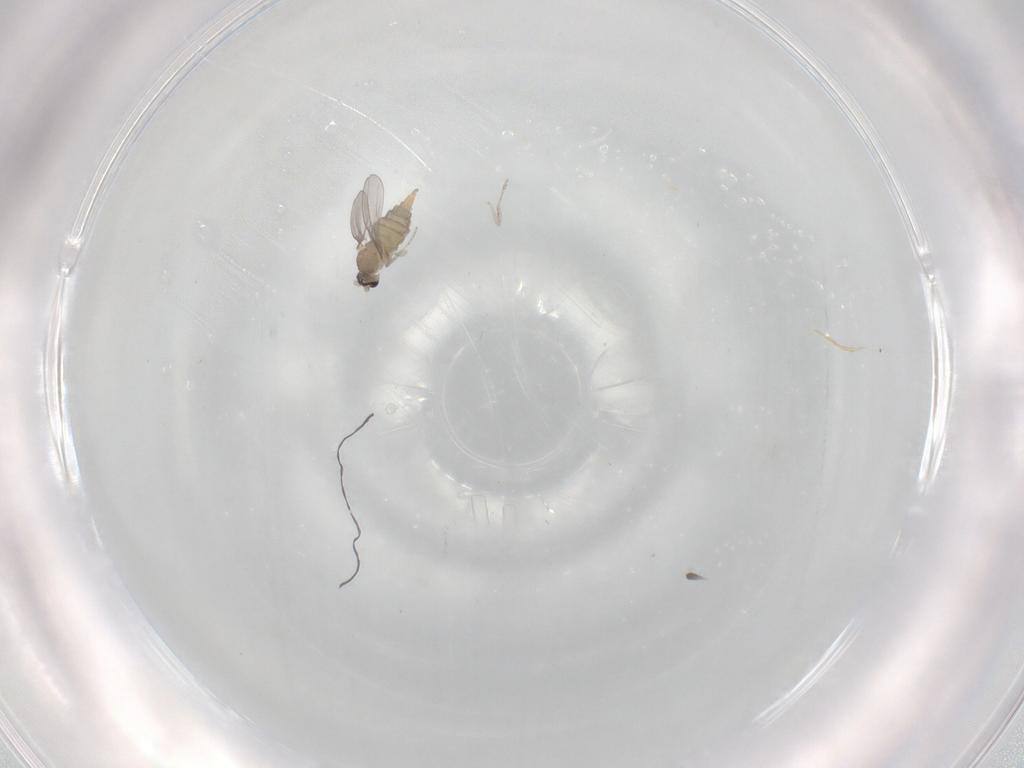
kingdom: Animalia
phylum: Arthropoda
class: Insecta
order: Diptera
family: Cecidomyiidae
